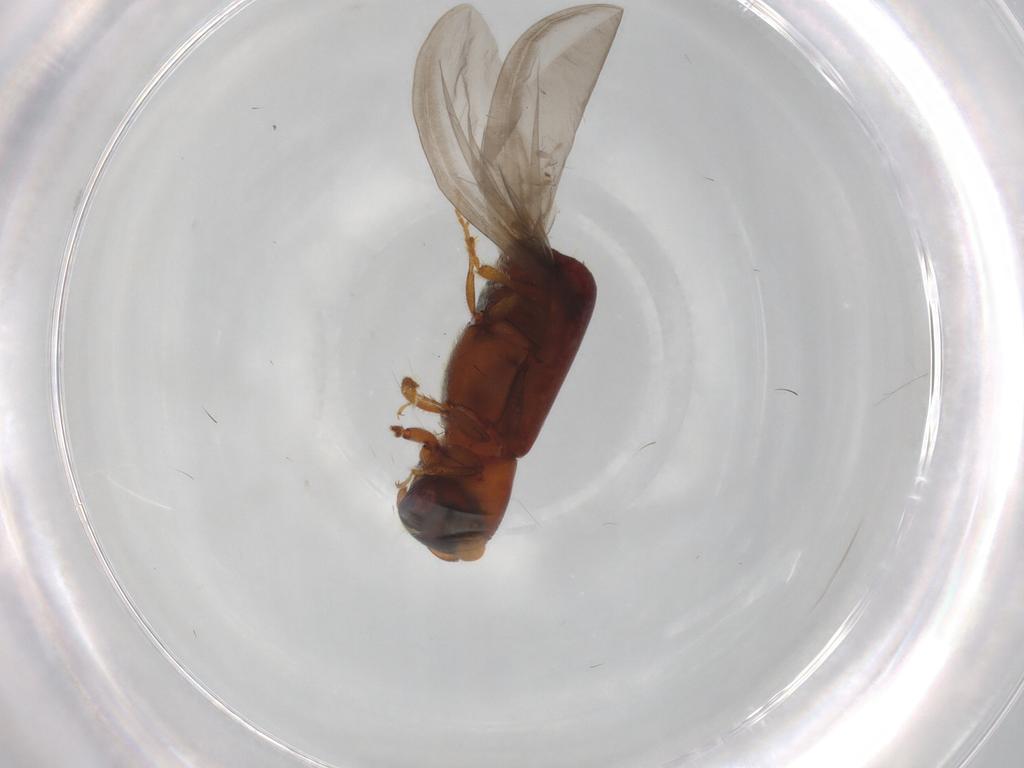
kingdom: Animalia
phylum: Arthropoda
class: Insecta
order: Coleoptera
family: Curculionidae
